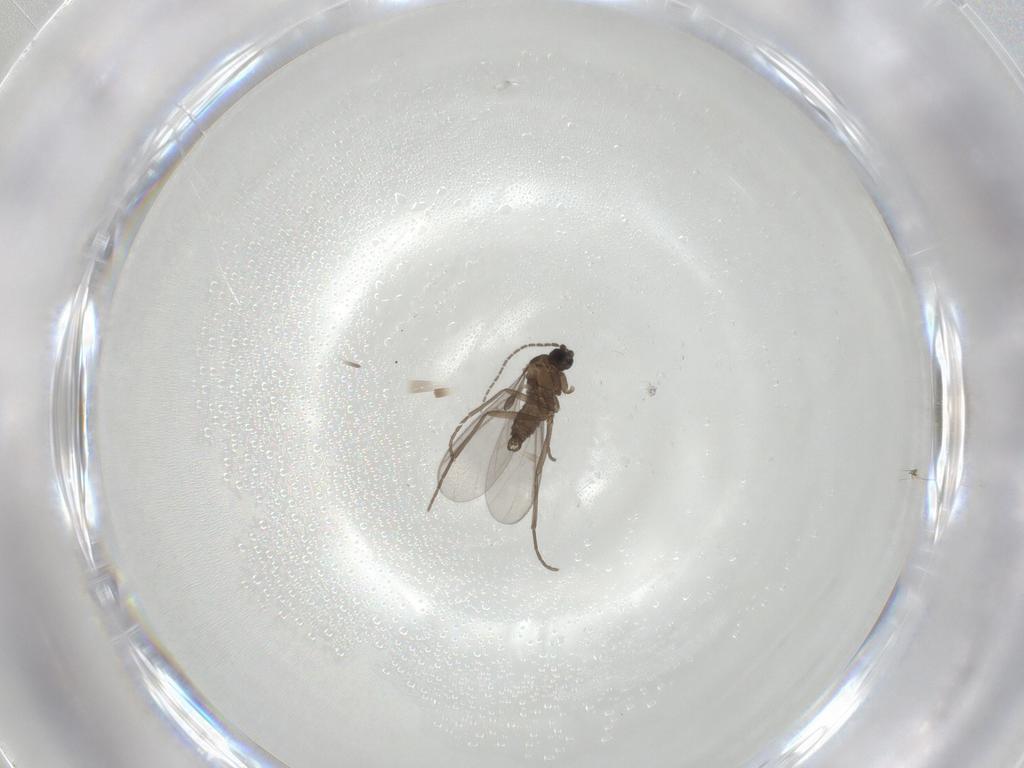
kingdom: Animalia
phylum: Arthropoda
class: Insecta
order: Diptera
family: Sciaridae
